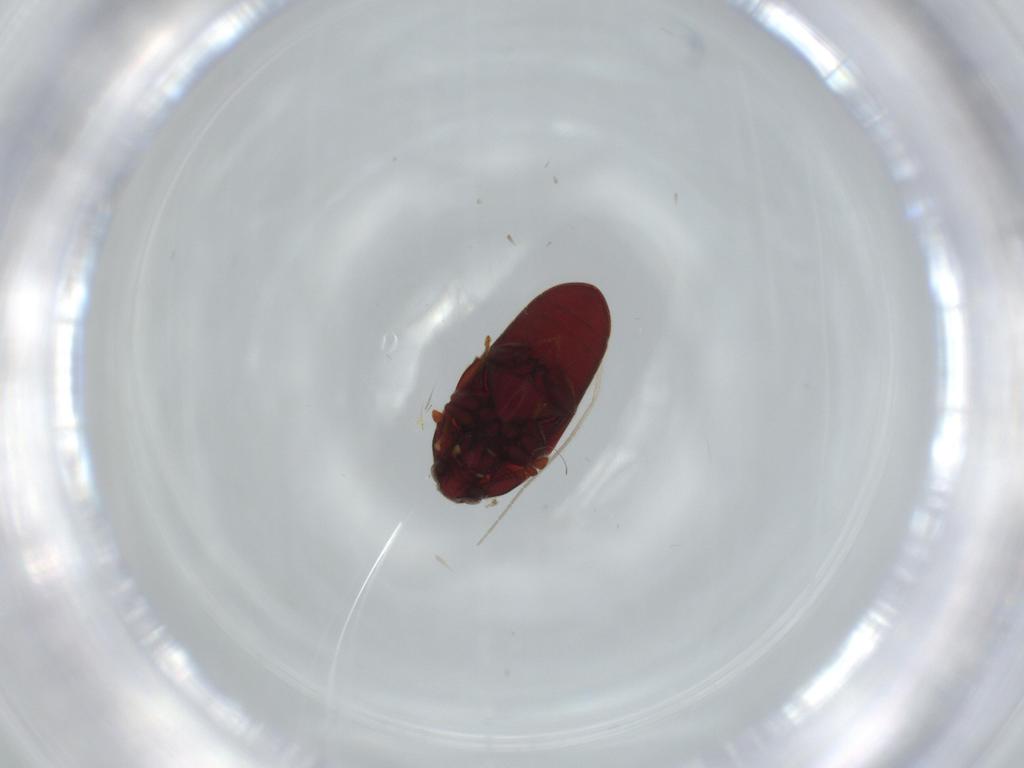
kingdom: Animalia
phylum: Arthropoda
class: Insecta
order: Coleoptera
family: Throscidae
